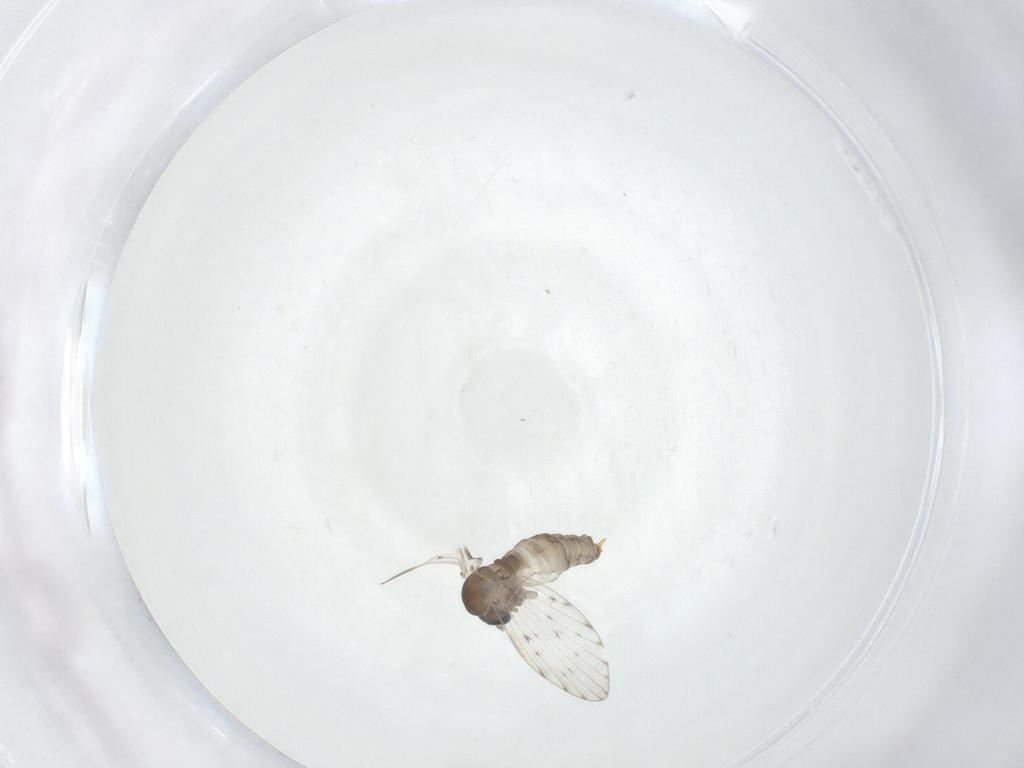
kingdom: Animalia
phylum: Arthropoda
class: Insecta
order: Diptera
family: Psychodidae
